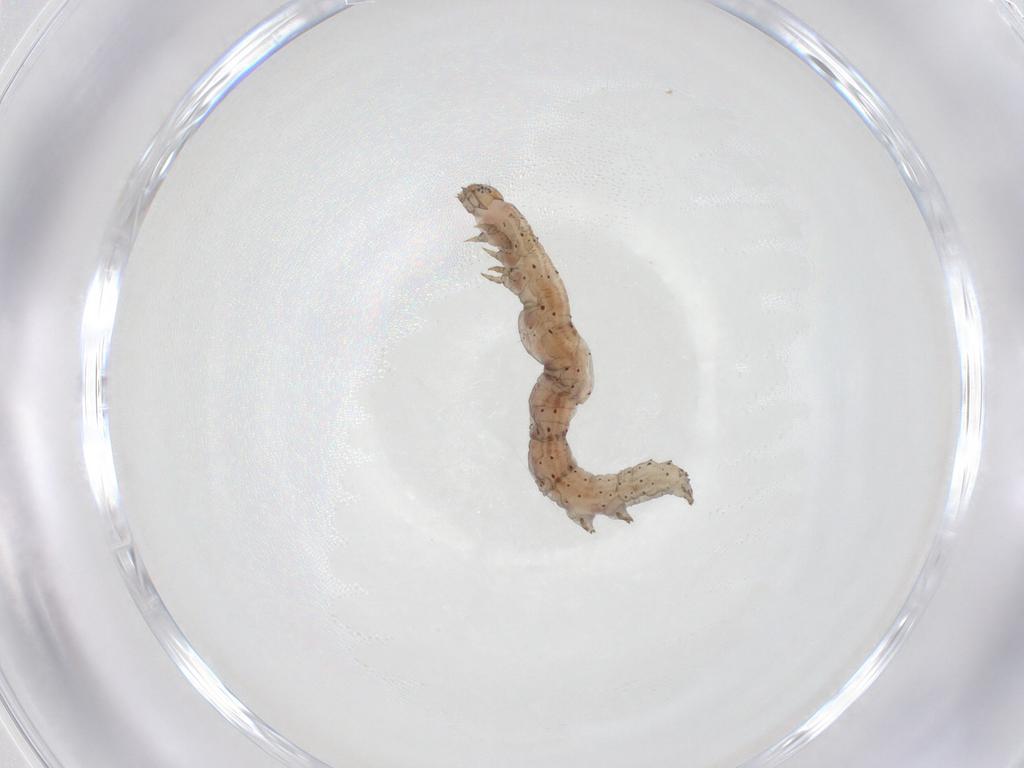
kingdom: Animalia
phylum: Arthropoda
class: Insecta
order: Lepidoptera
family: Erebidae
